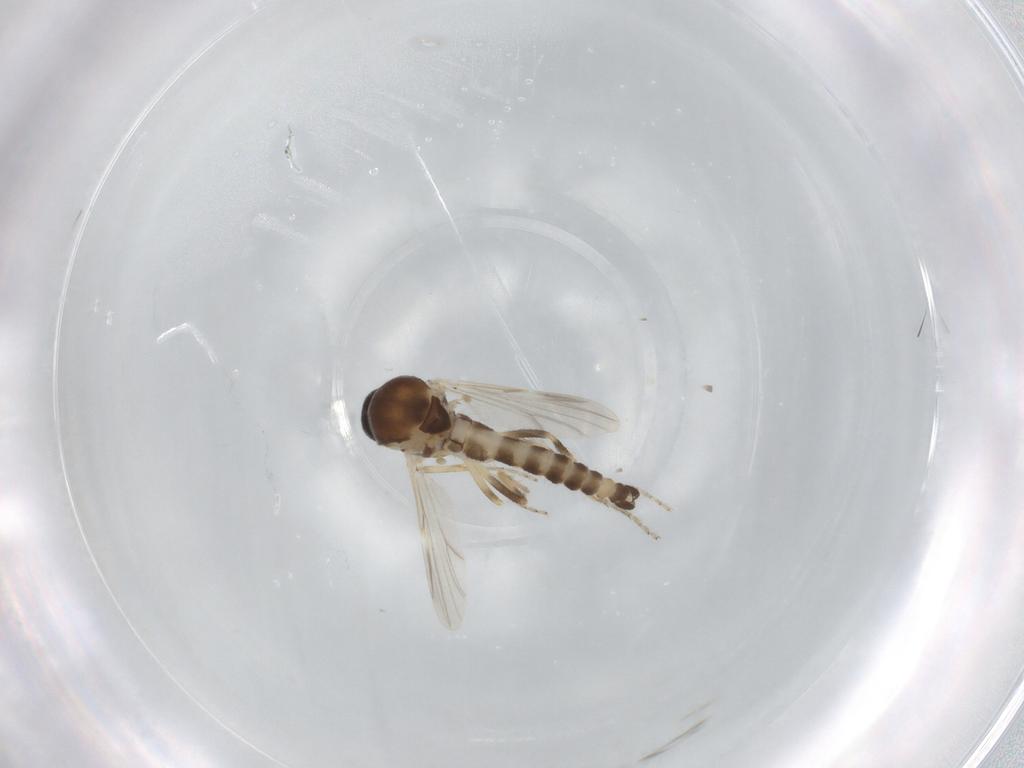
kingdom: Animalia
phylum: Arthropoda
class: Insecta
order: Diptera
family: Ceratopogonidae
